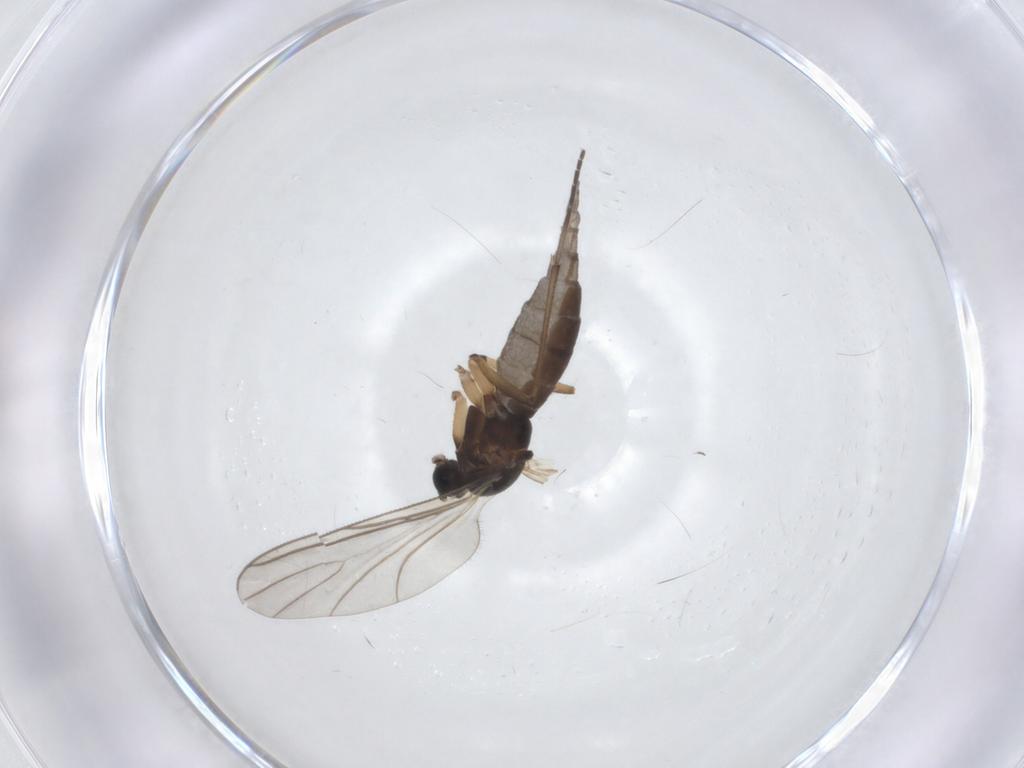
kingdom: Animalia
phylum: Arthropoda
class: Insecta
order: Diptera
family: Sciaridae
